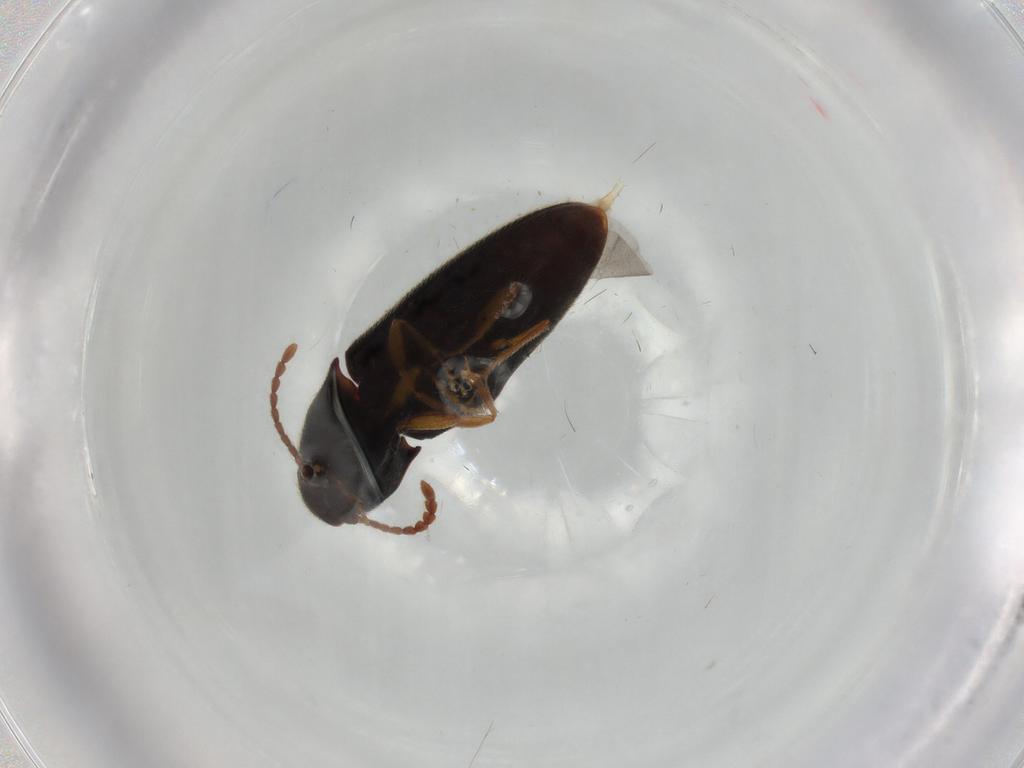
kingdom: Animalia
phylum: Arthropoda
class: Insecta
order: Coleoptera
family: Elateridae
